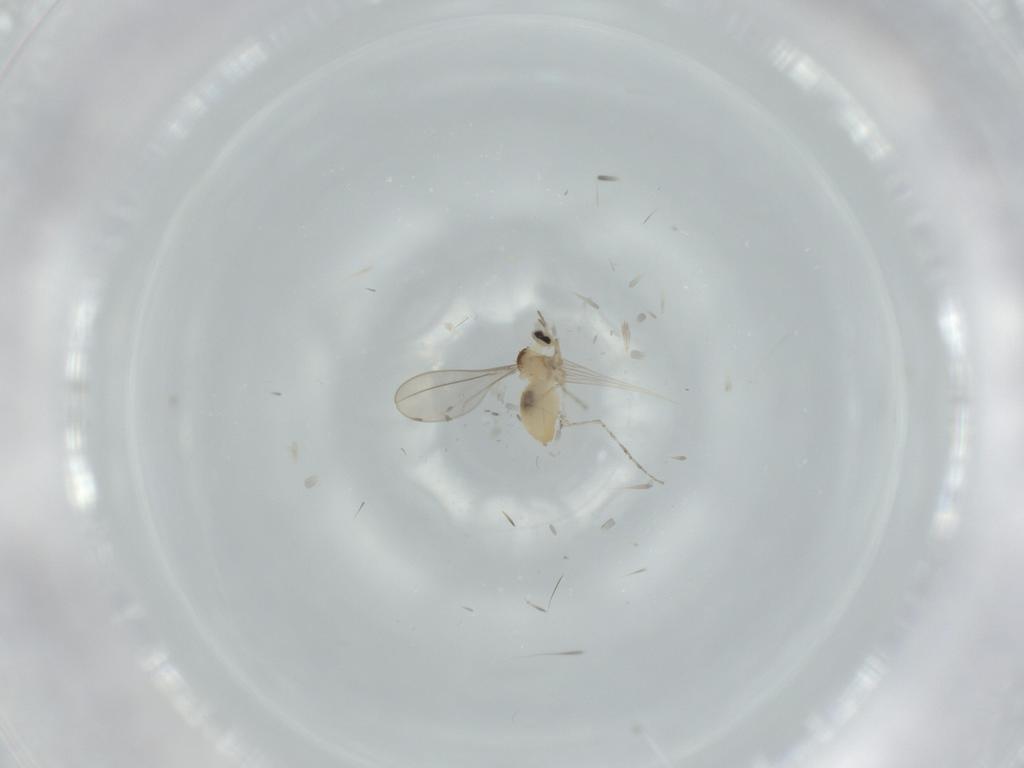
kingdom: Animalia
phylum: Arthropoda
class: Insecta
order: Diptera
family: Cecidomyiidae
